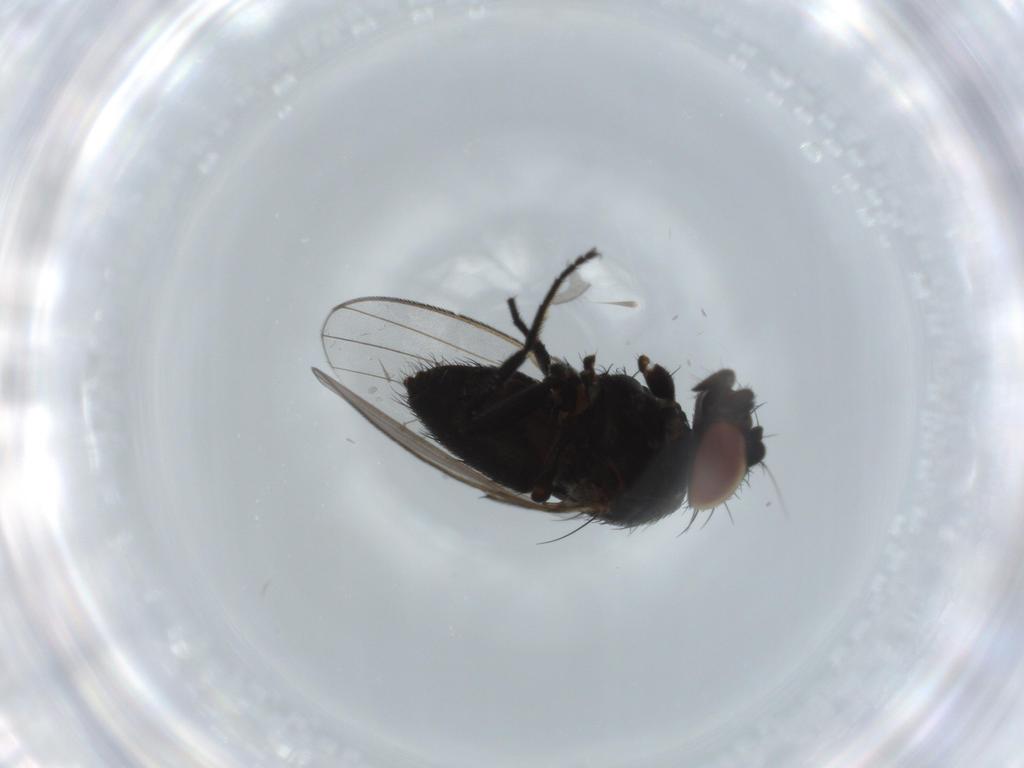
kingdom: Animalia
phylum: Arthropoda
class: Insecta
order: Diptera
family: Milichiidae
